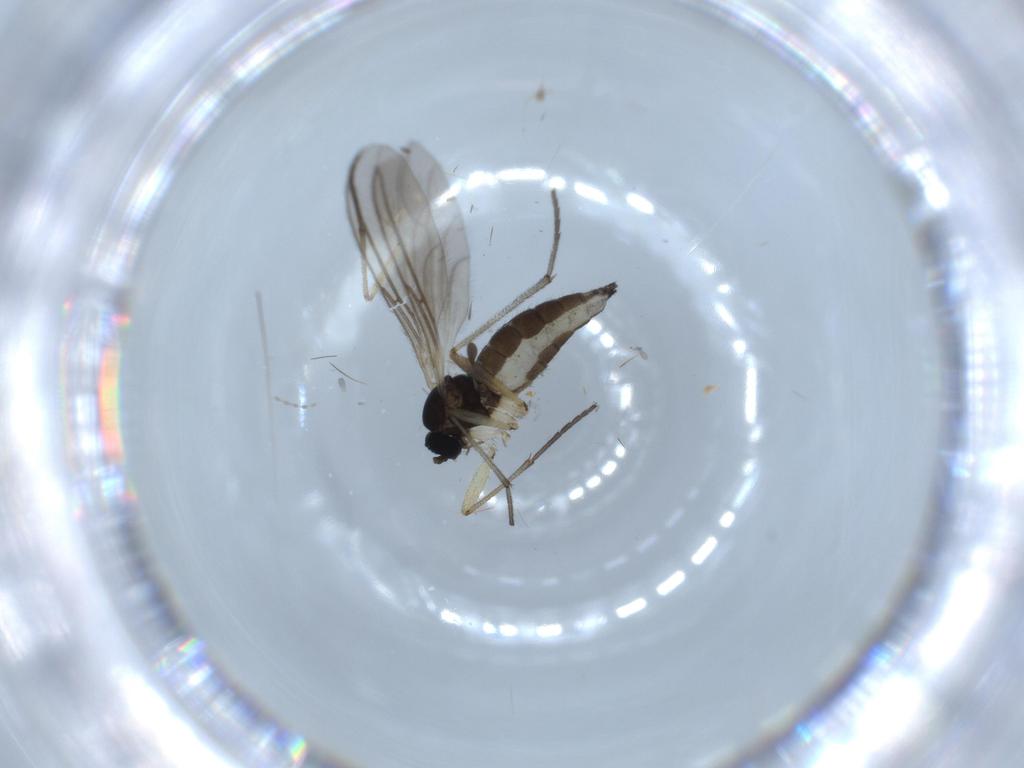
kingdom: Animalia
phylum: Arthropoda
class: Insecta
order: Diptera
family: Sciaridae
